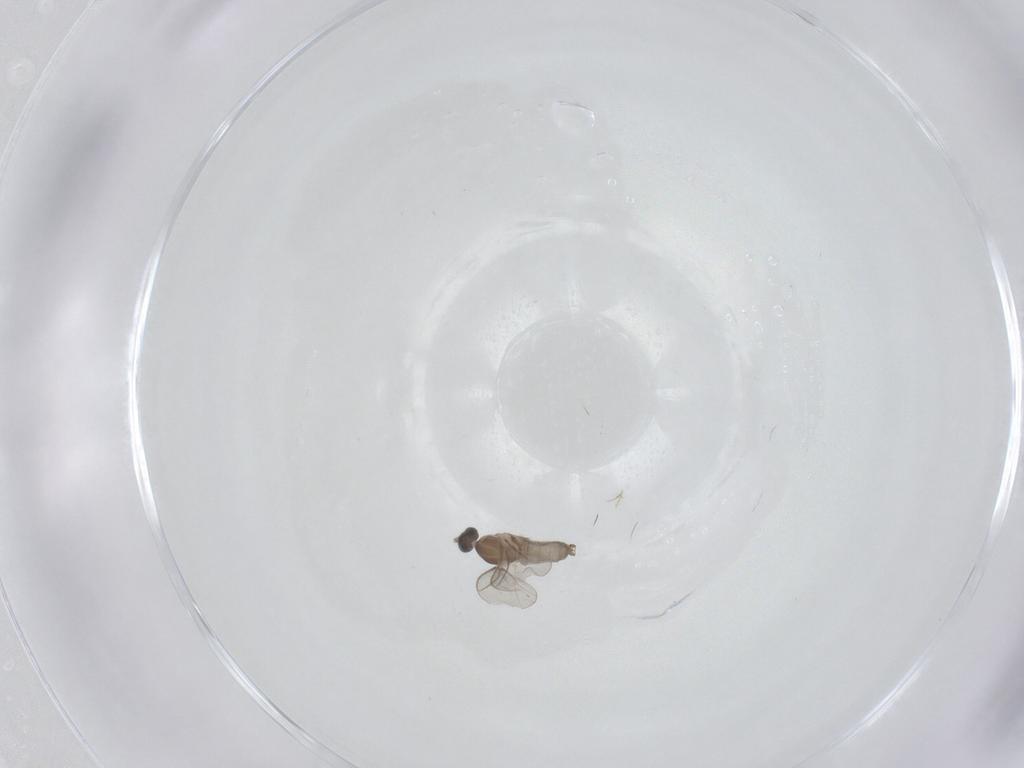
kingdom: Animalia
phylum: Arthropoda
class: Insecta
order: Diptera
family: Cecidomyiidae
